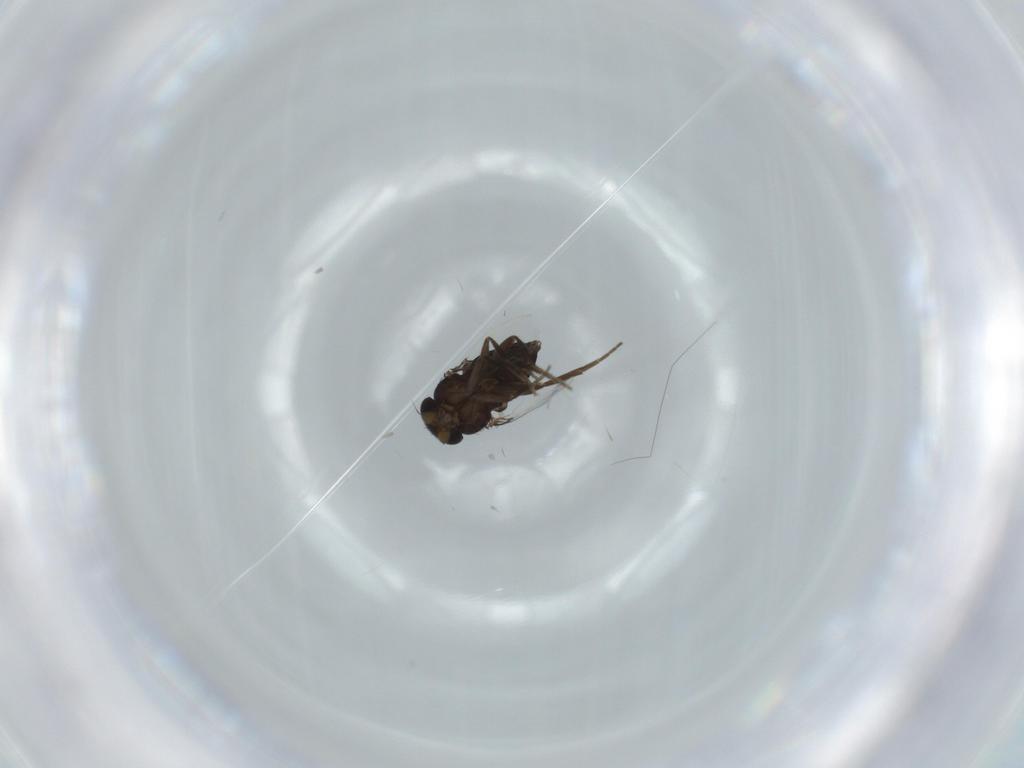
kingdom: Animalia
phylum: Arthropoda
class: Insecta
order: Diptera
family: Phoridae
